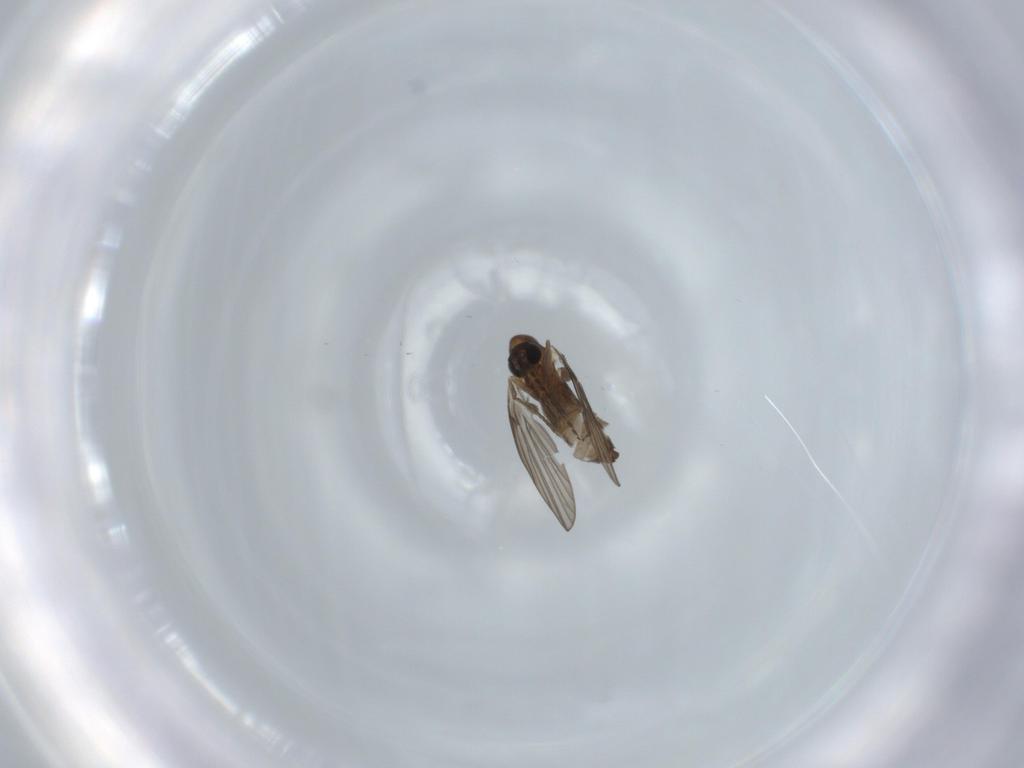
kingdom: Animalia
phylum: Arthropoda
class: Insecta
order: Diptera
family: Psychodidae
